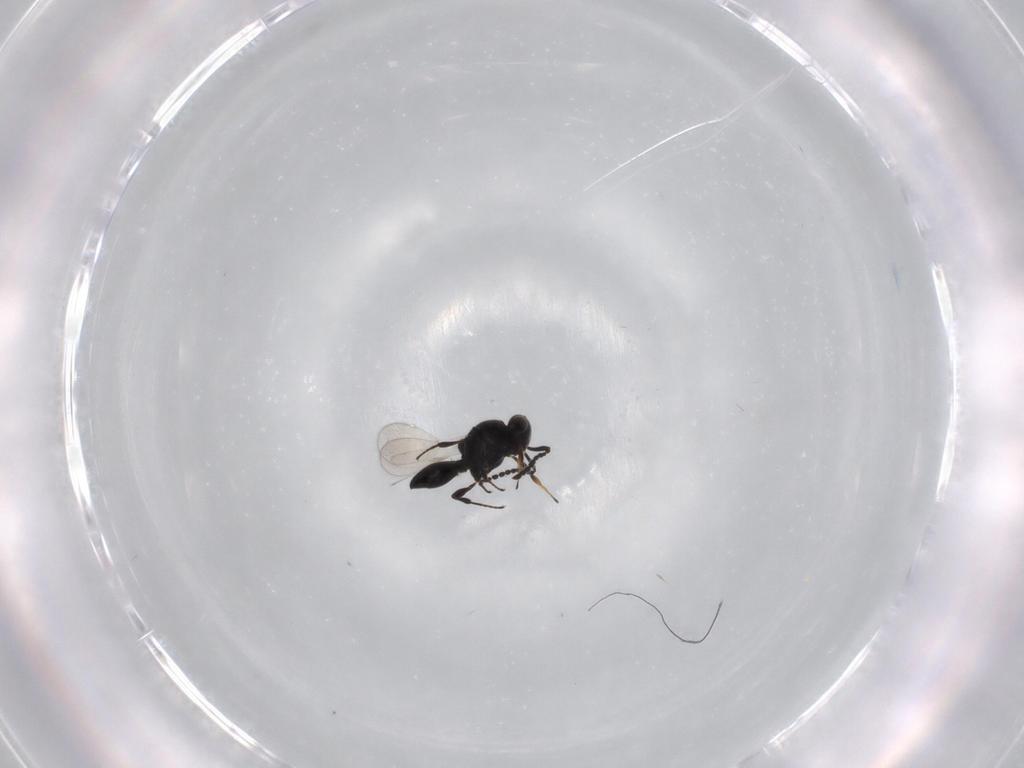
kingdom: Animalia
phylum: Arthropoda
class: Insecta
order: Hymenoptera
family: Platygastridae
